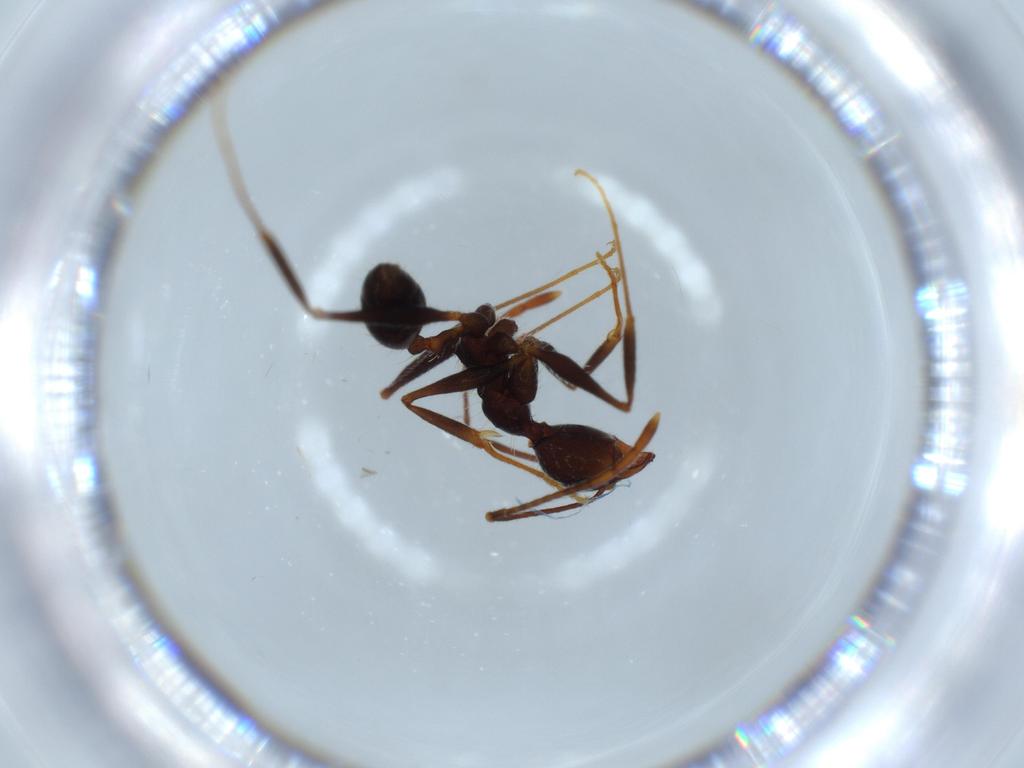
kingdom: Animalia
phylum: Arthropoda
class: Insecta
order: Hymenoptera
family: Formicidae
